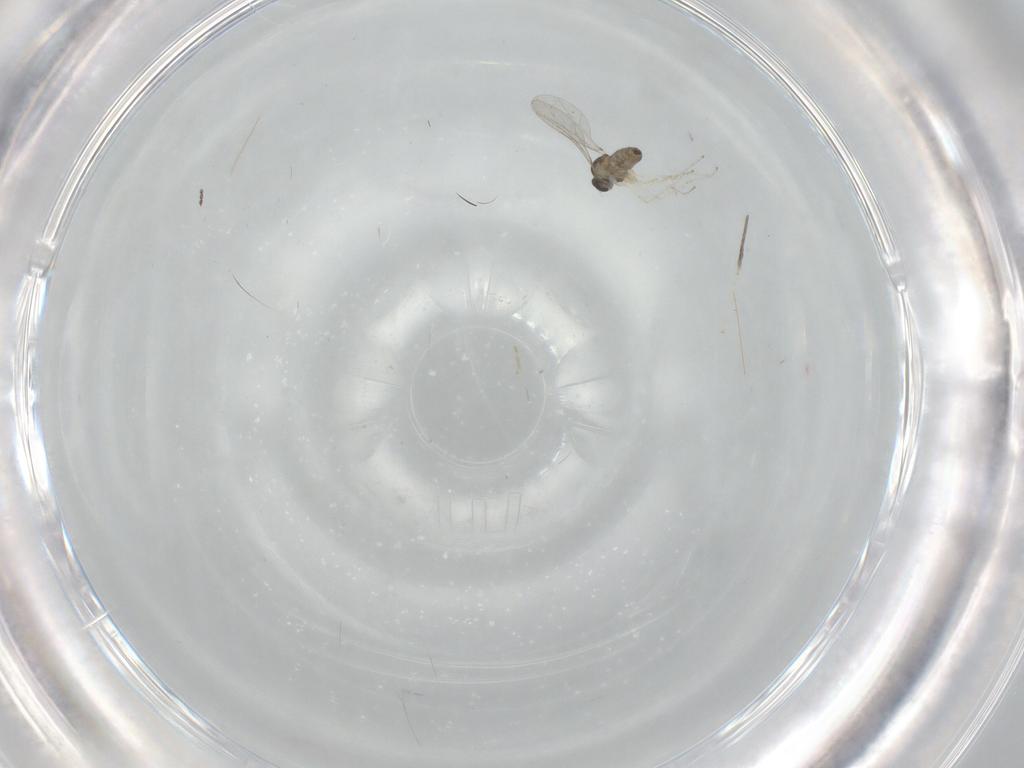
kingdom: Animalia
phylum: Arthropoda
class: Insecta
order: Diptera
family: Cecidomyiidae
